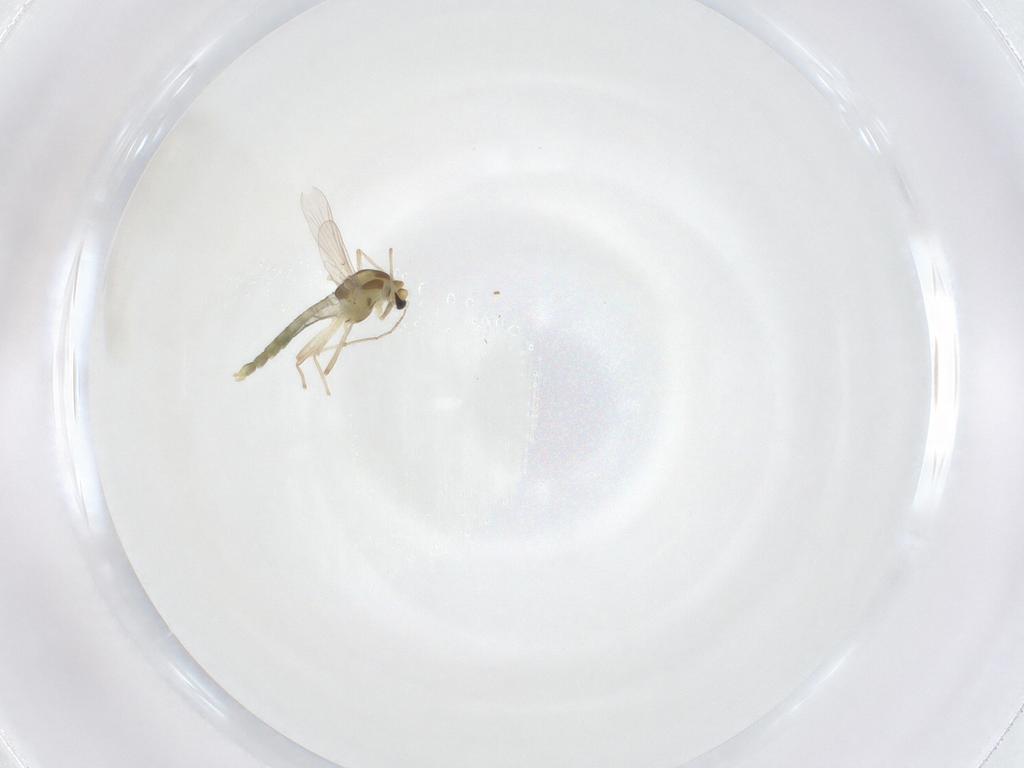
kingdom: Animalia
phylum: Arthropoda
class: Insecta
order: Diptera
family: Chironomidae
